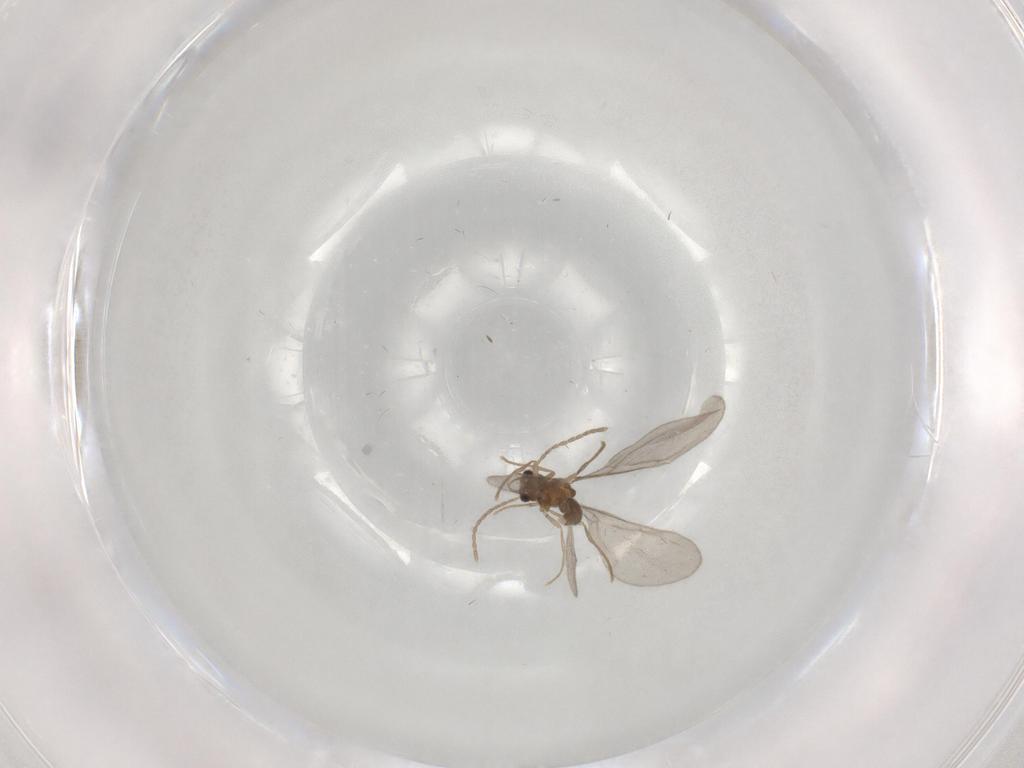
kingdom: Animalia
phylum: Arthropoda
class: Insecta
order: Hymenoptera
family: Formicidae
